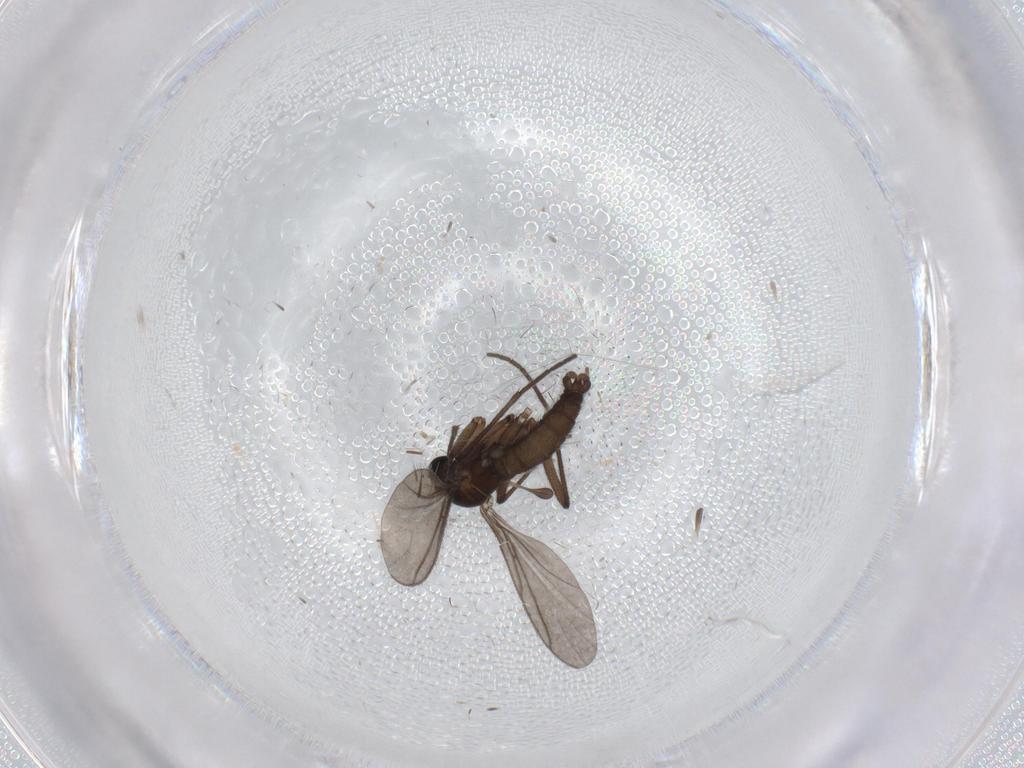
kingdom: Animalia
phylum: Arthropoda
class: Insecta
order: Diptera
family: Sciaridae
